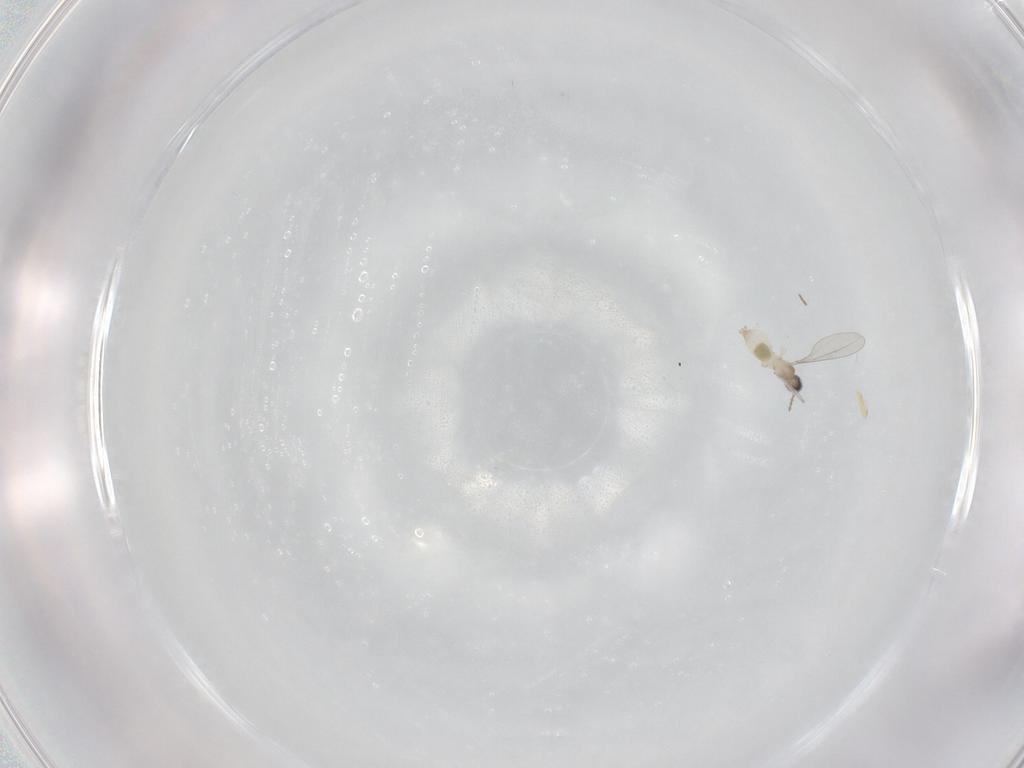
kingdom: Animalia
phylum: Arthropoda
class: Insecta
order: Diptera
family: Cecidomyiidae
